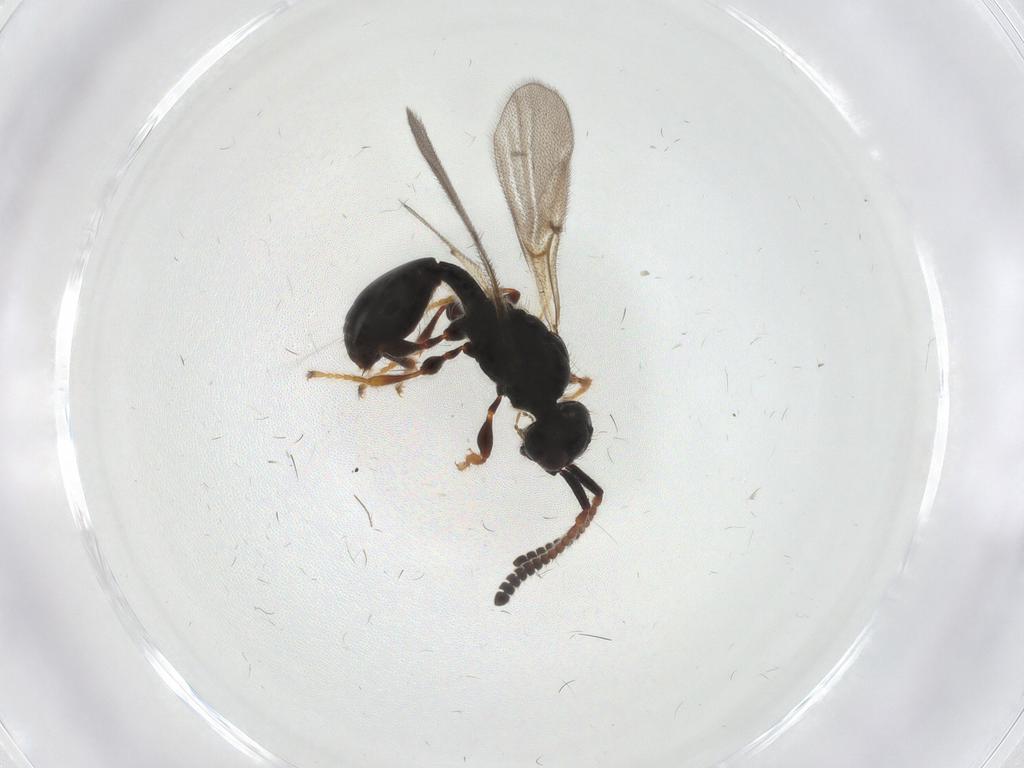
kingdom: Animalia
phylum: Arthropoda
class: Insecta
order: Hymenoptera
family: Diapriidae
